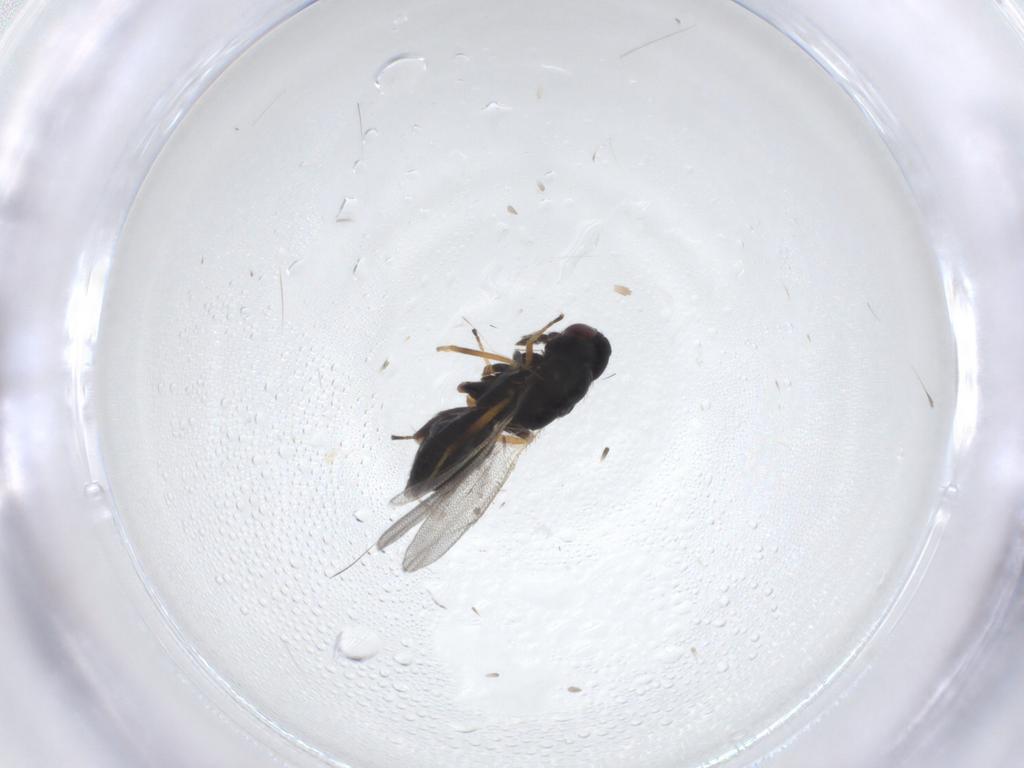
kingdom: Animalia
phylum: Arthropoda
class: Insecta
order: Hymenoptera
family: Eulophidae
